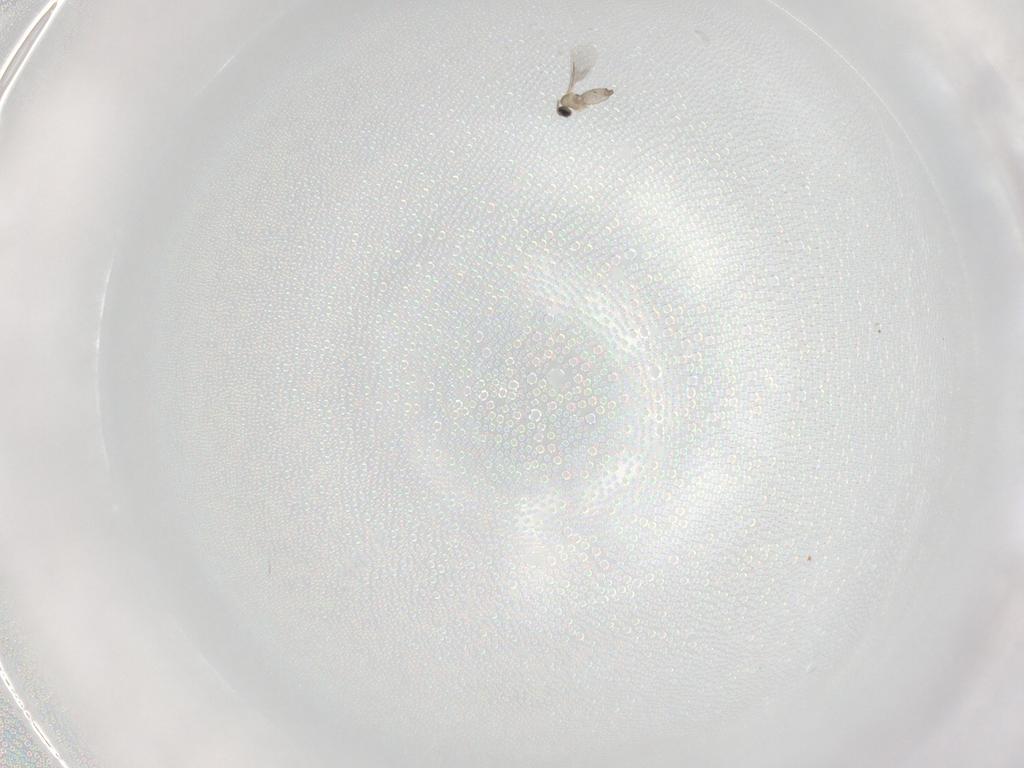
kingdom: Animalia
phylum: Arthropoda
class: Insecta
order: Diptera
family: Cecidomyiidae
